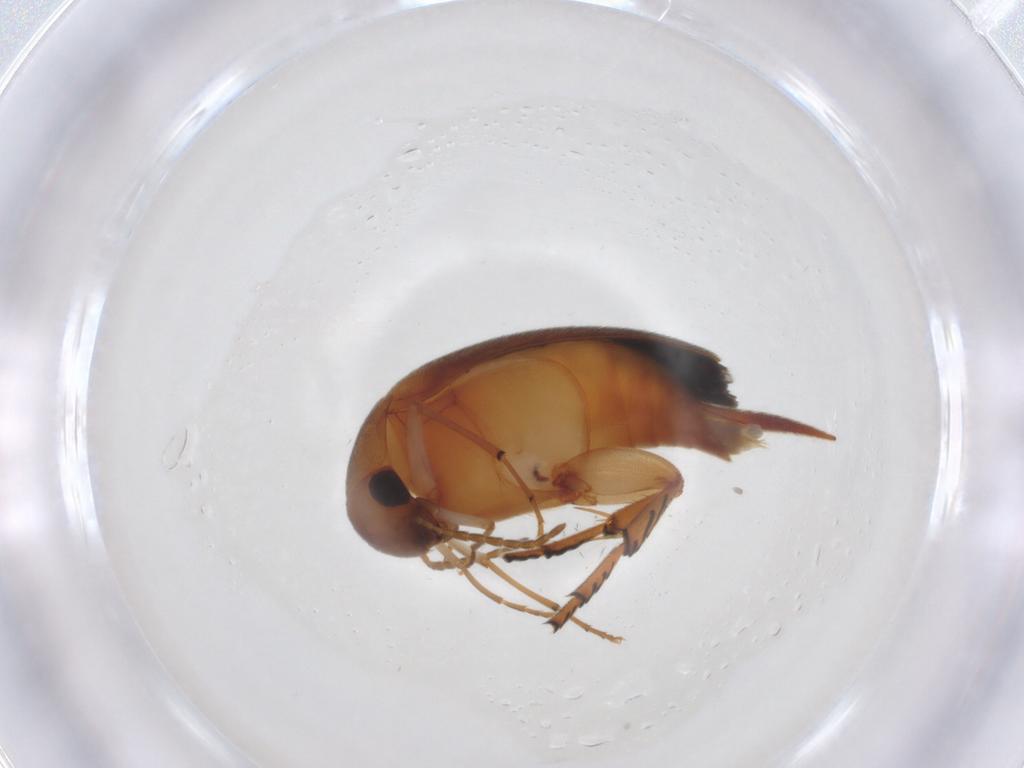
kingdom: Animalia
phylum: Arthropoda
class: Insecta
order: Coleoptera
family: Mordellidae
